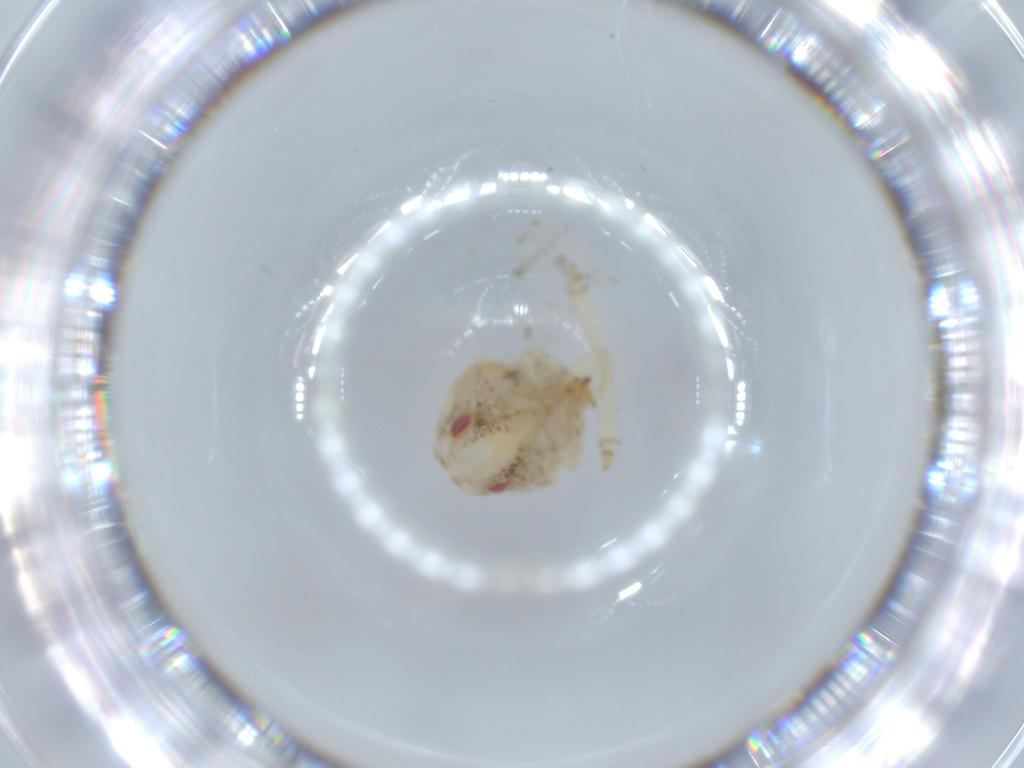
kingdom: Animalia
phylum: Arthropoda
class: Insecta
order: Hemiptera
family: Acanaloniidae
